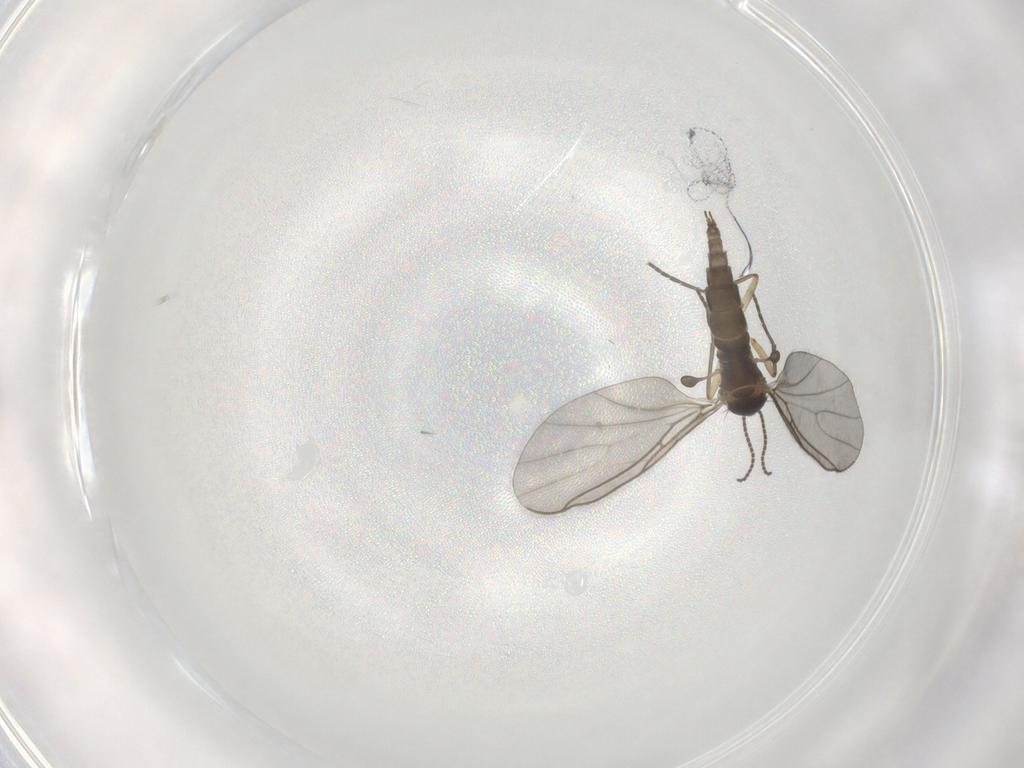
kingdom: Animalia
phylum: Arthropoda
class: Insecta
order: Diptera
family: Sciaridae
